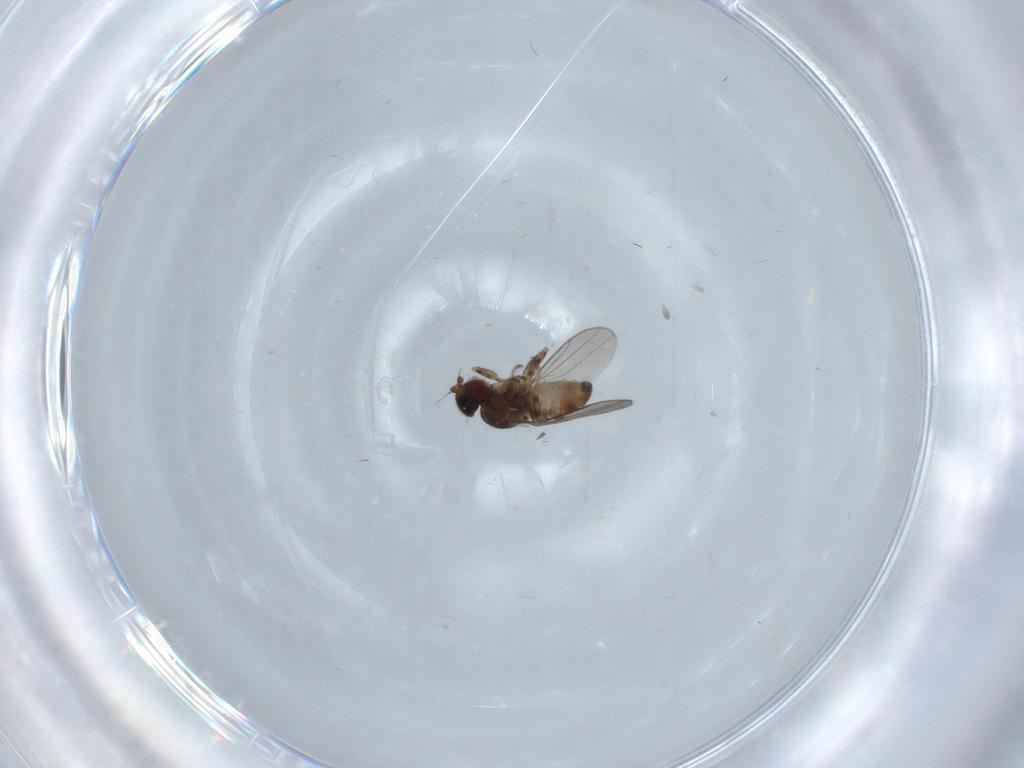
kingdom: Animalia
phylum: Arthropoda
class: Insecta
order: Diptera
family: Chloropidae
